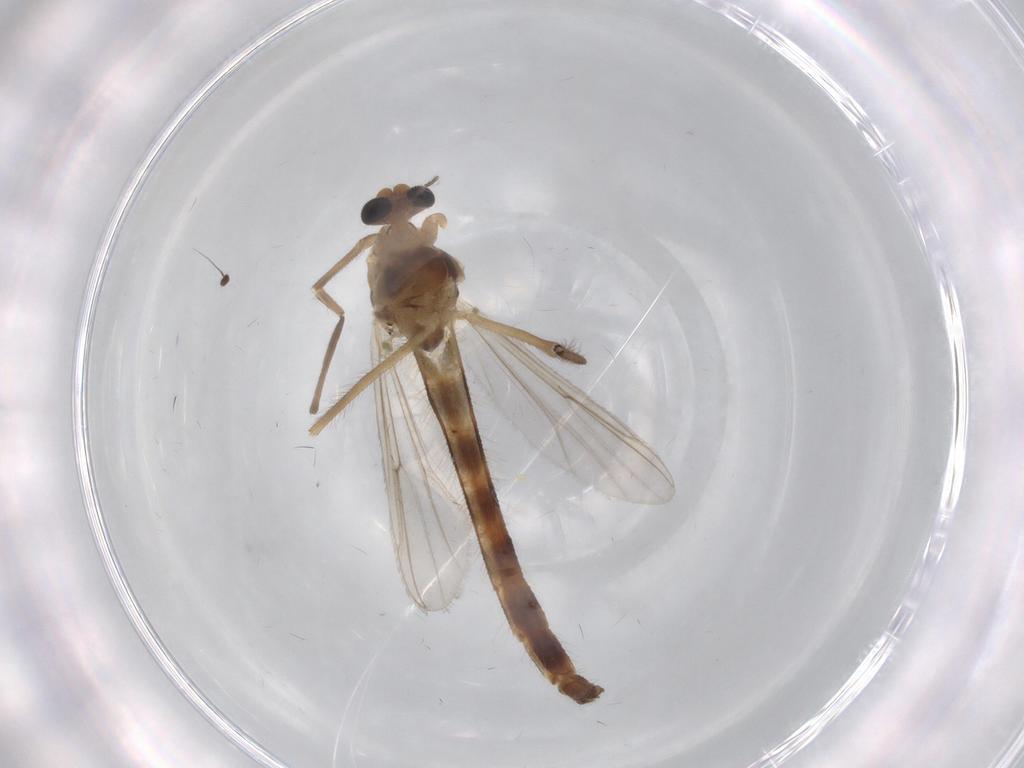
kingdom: Animalia
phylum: Arthropoda
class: Insecta
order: Diptera
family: Chironomidae
